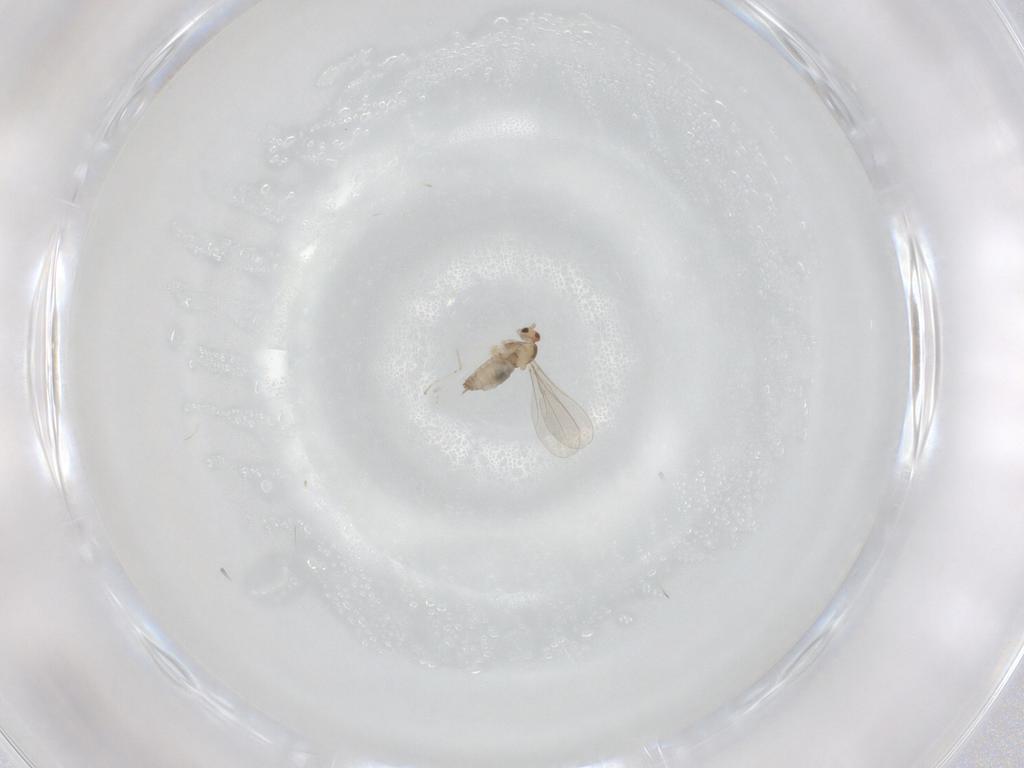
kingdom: Animalia
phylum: Arthropoda
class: Insecta
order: Diptera
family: Cecidomyiidae
